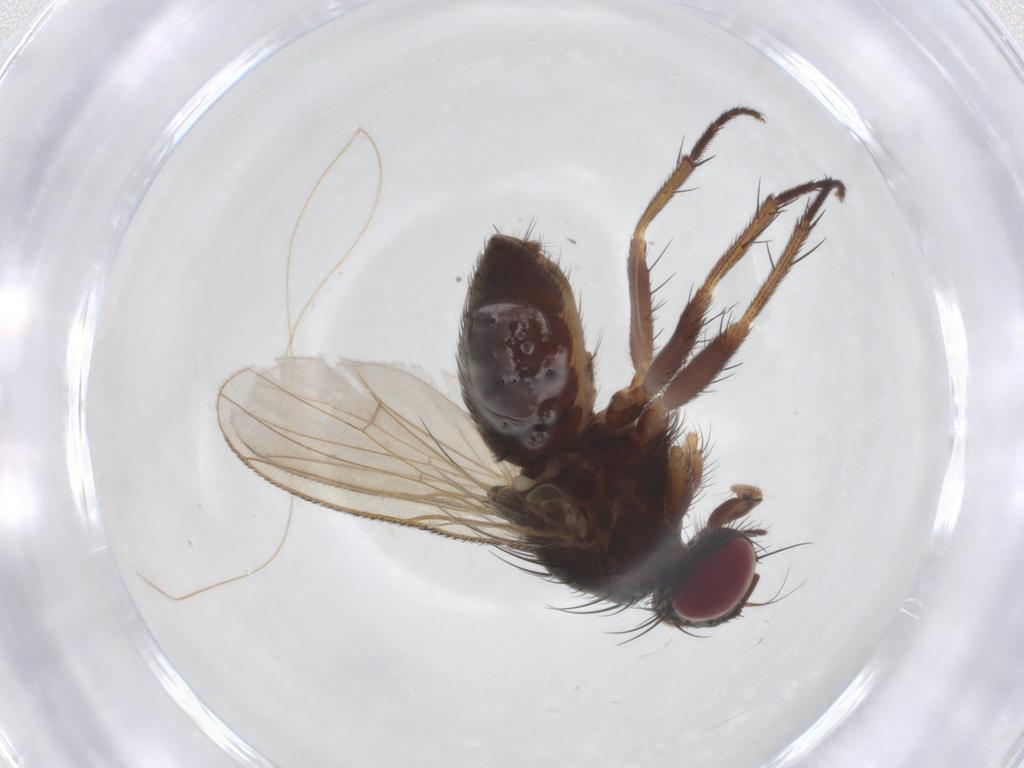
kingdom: Animalia
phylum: Arthropoda
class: Insecta
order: Diptera
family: Muscidae
